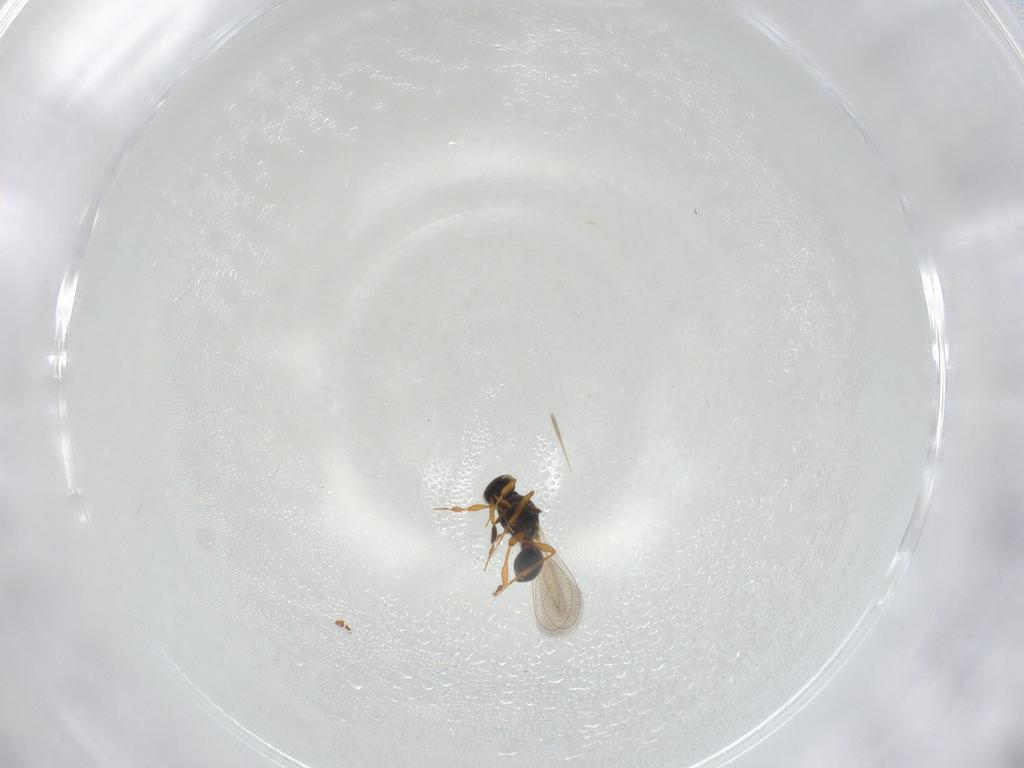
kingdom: Animalia
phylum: Arthropoda
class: Insecta
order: Hymenoptera
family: Platygastridae
